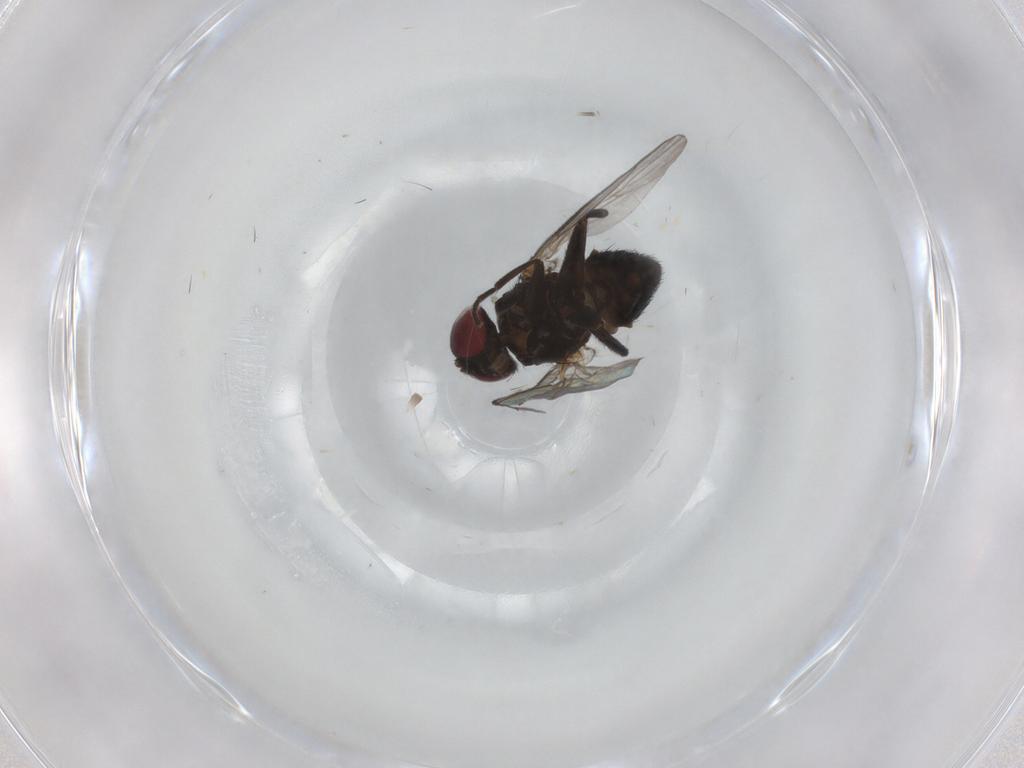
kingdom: Animalia
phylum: Arthropoda
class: Insecta
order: Diptera
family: Agromyzidae
